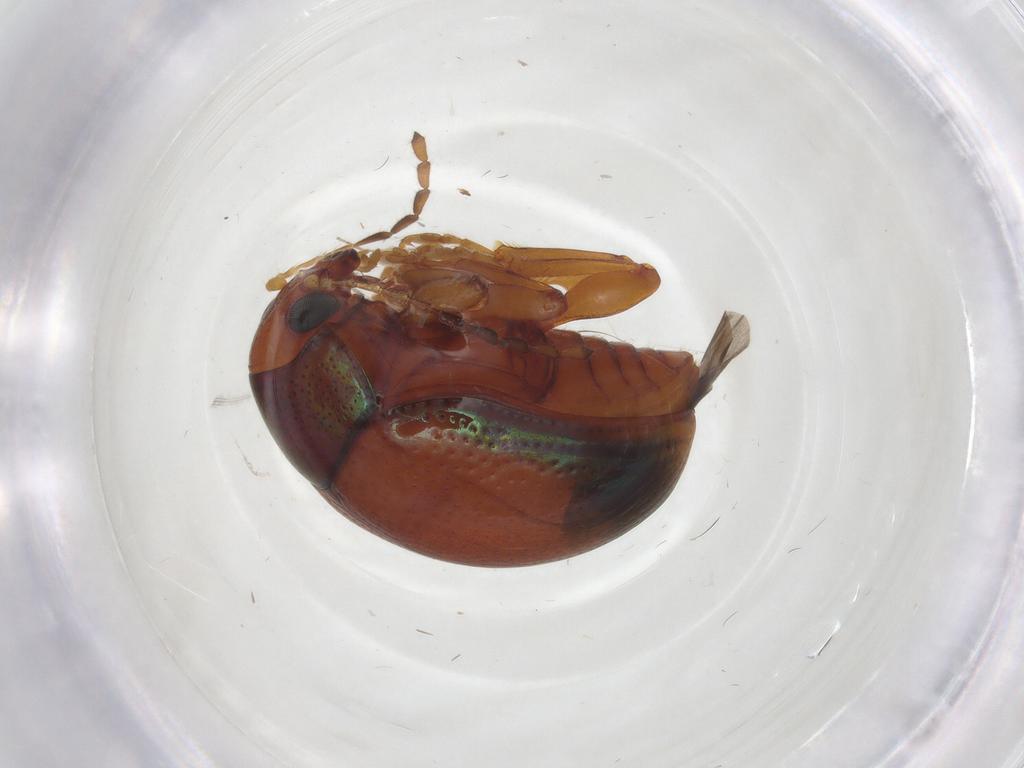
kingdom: Animalia
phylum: Arthropoda
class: Insecta
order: Coleoptera
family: Chrysomelidae
